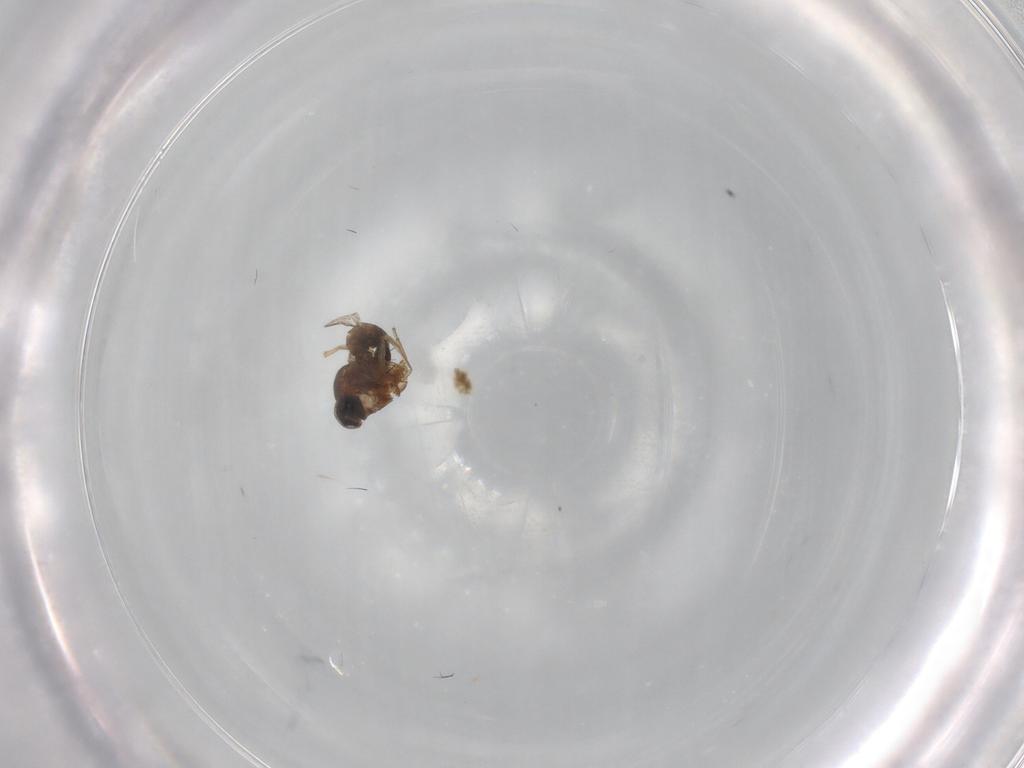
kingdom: Animalia
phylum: Arthropoda
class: Insecta
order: Diptera
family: Ceratopogonidae
